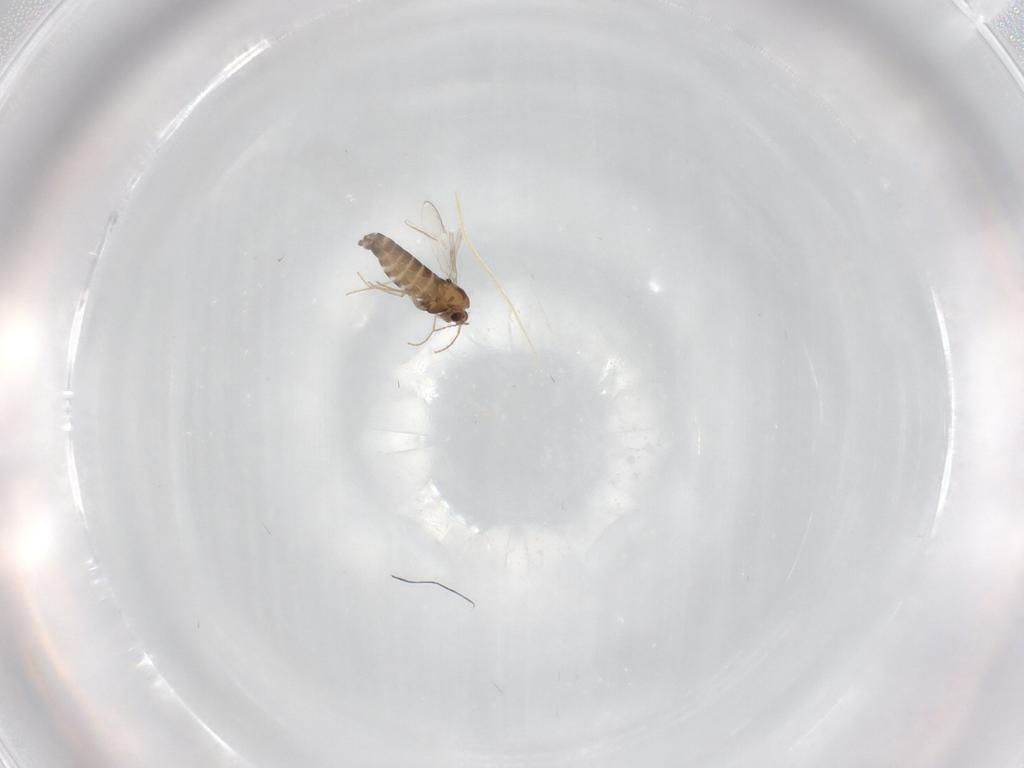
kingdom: Animalia
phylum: Arthropoda
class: Insecta
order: Diptera
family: Chironomidae
